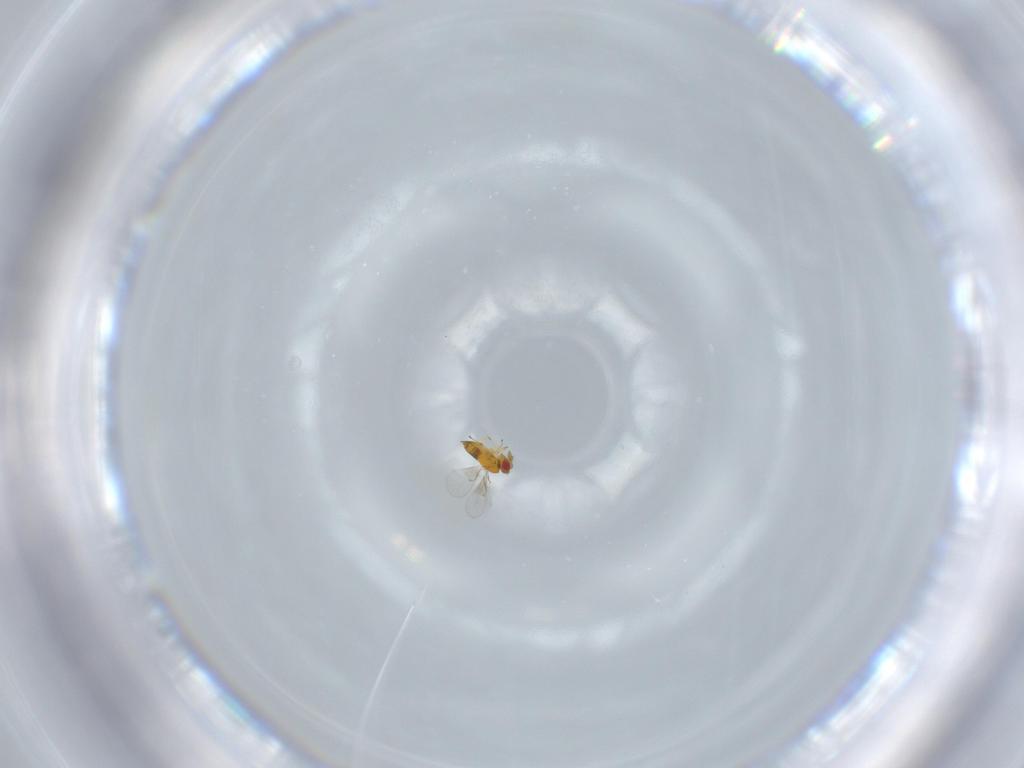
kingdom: Animalia
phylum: Arthropoda
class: Insecta
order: Hymenoptera
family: Trichogrammatidae
